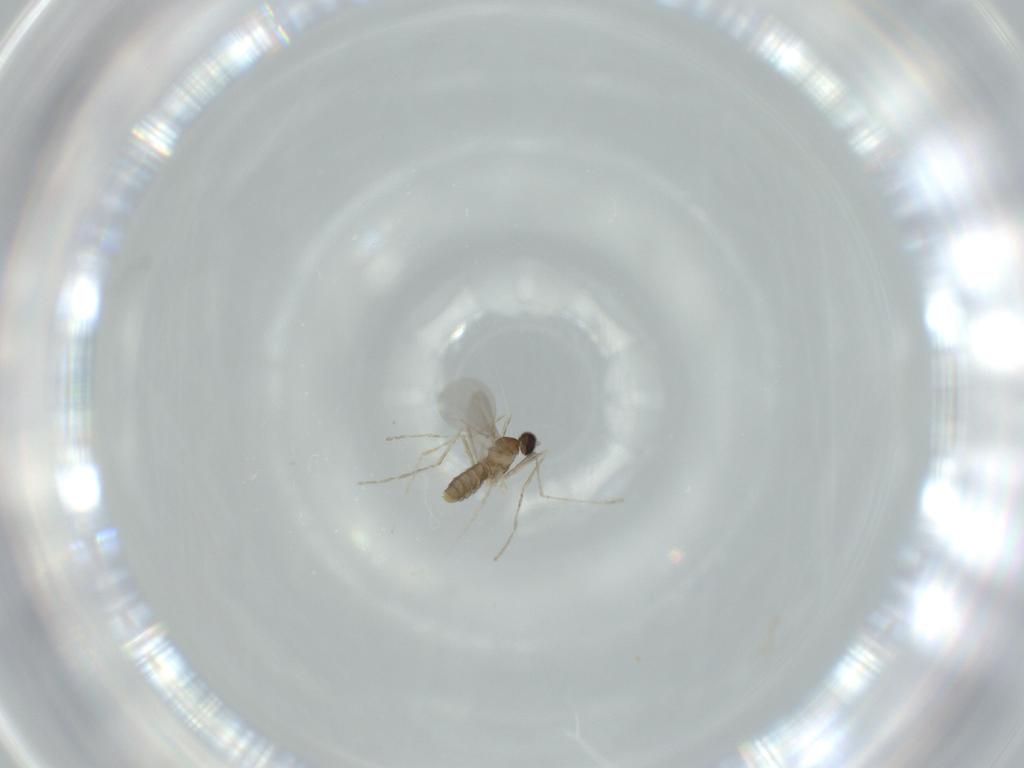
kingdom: Animalia
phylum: Arthropoda
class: Insecta
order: Diptera
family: Cecidomyiidae
